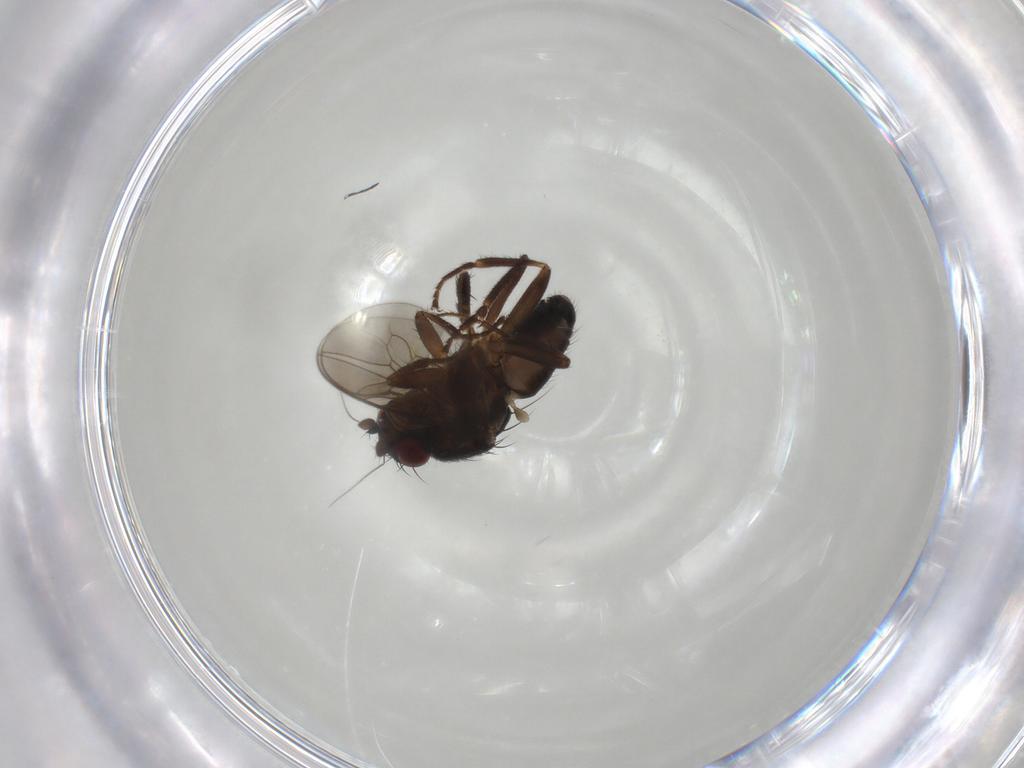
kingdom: Animalia
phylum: Arthropoda
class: Insecta
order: Diptera
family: Sphaeroceridae
